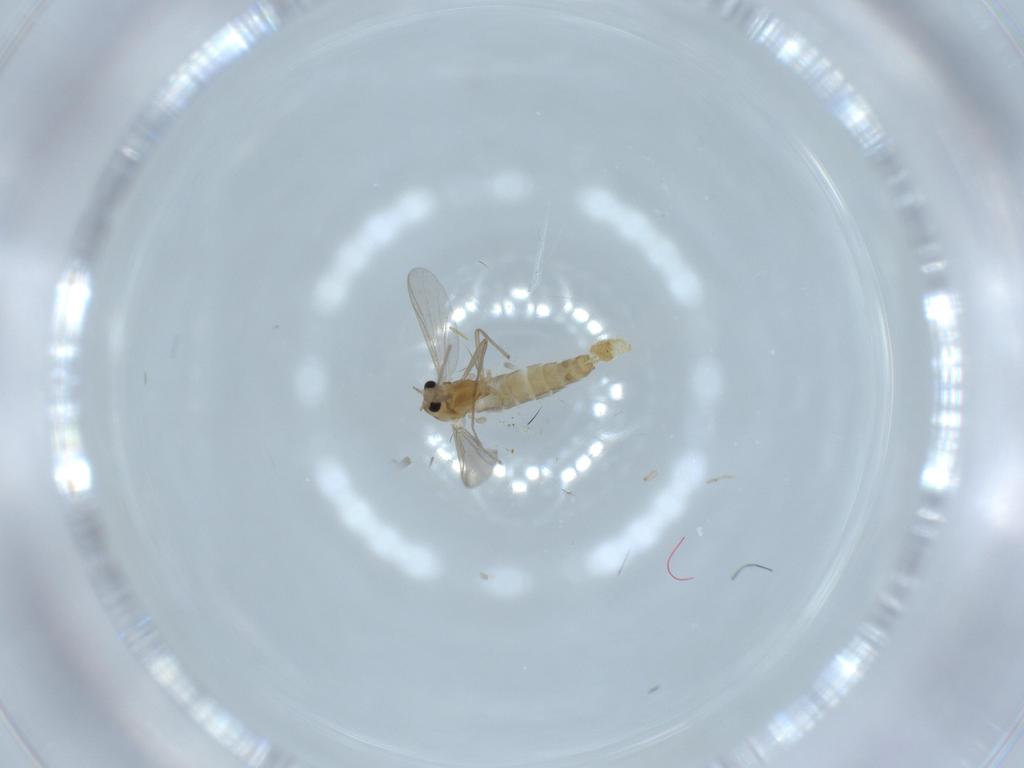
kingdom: Animalia
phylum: Arthropoda
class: Insecta
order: Diptera
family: Chironomidae
